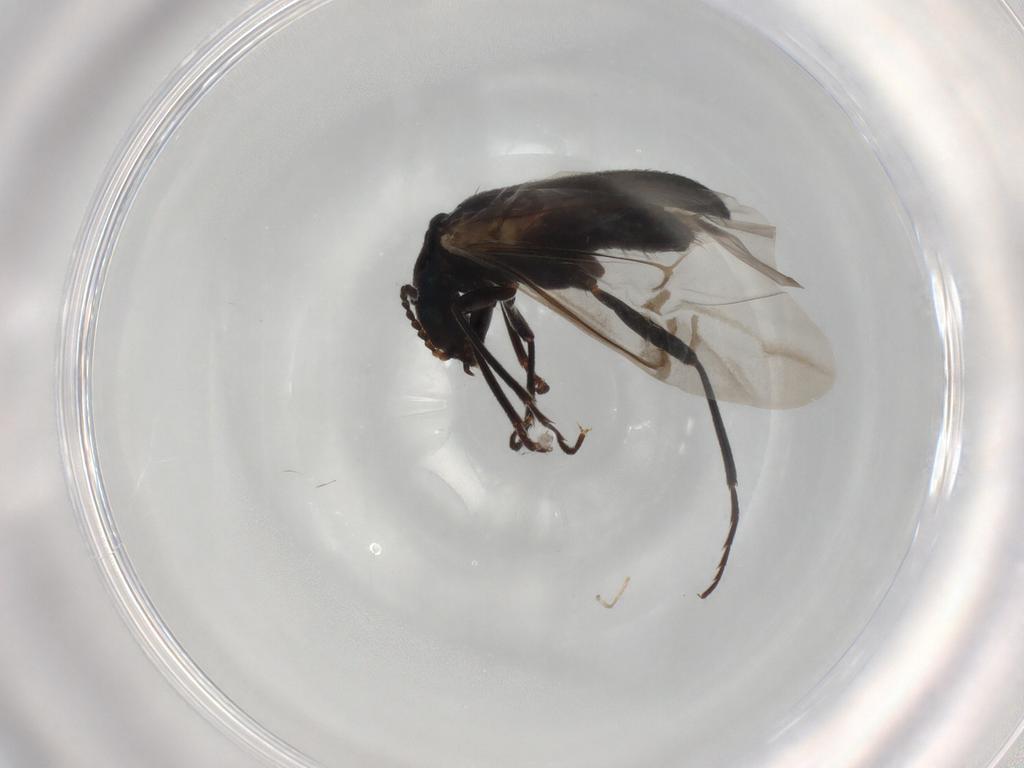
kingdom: Animalia
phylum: Arthropoda
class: Insecta
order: Coleoptera
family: Melyridae
